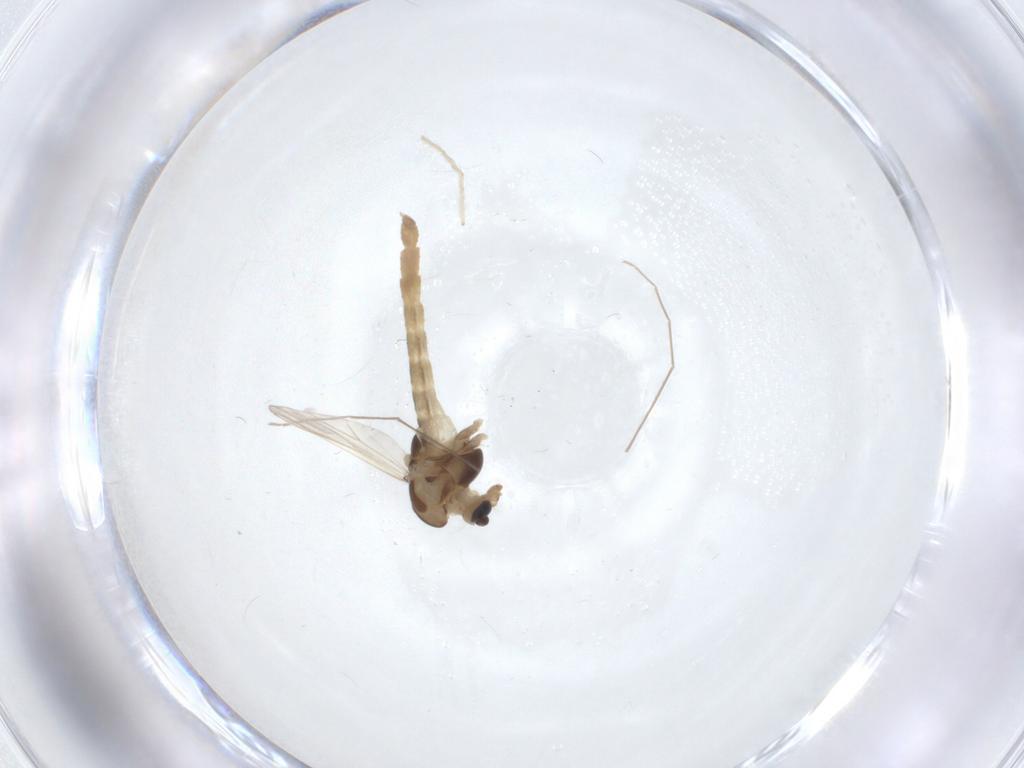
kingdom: Animalia
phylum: Arthropoda
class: Insecta
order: Diptera
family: Chironomidae
